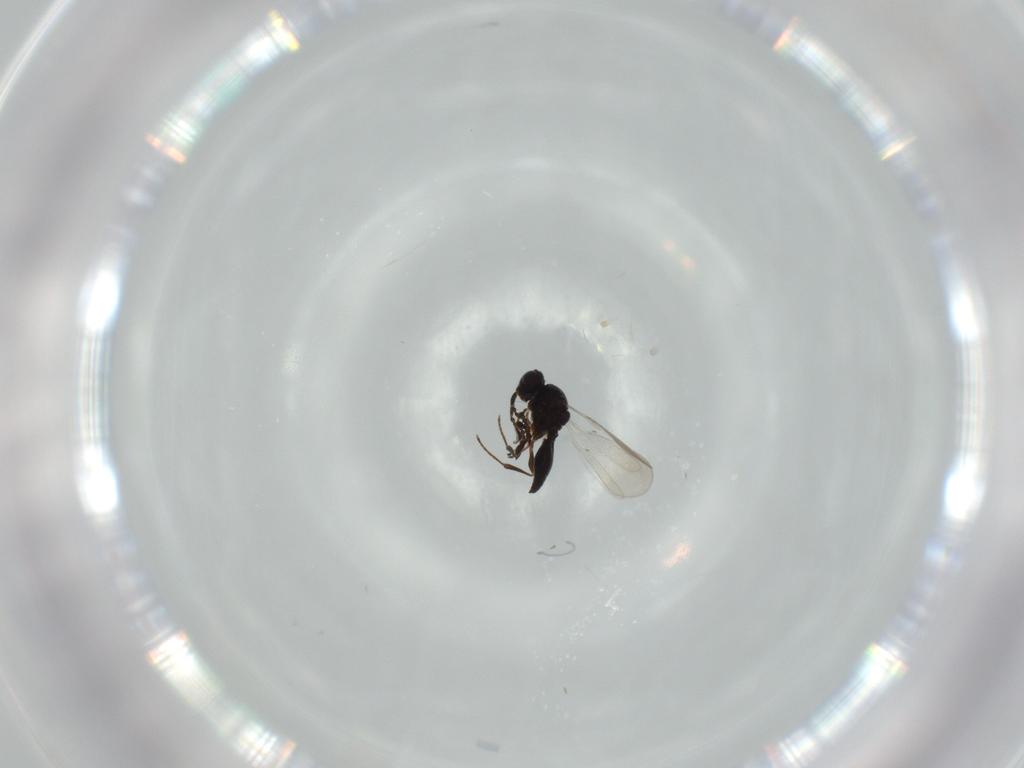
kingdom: Animalia
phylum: Arthropoda
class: Insecta
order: Hymenoptera
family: Platygastridae
